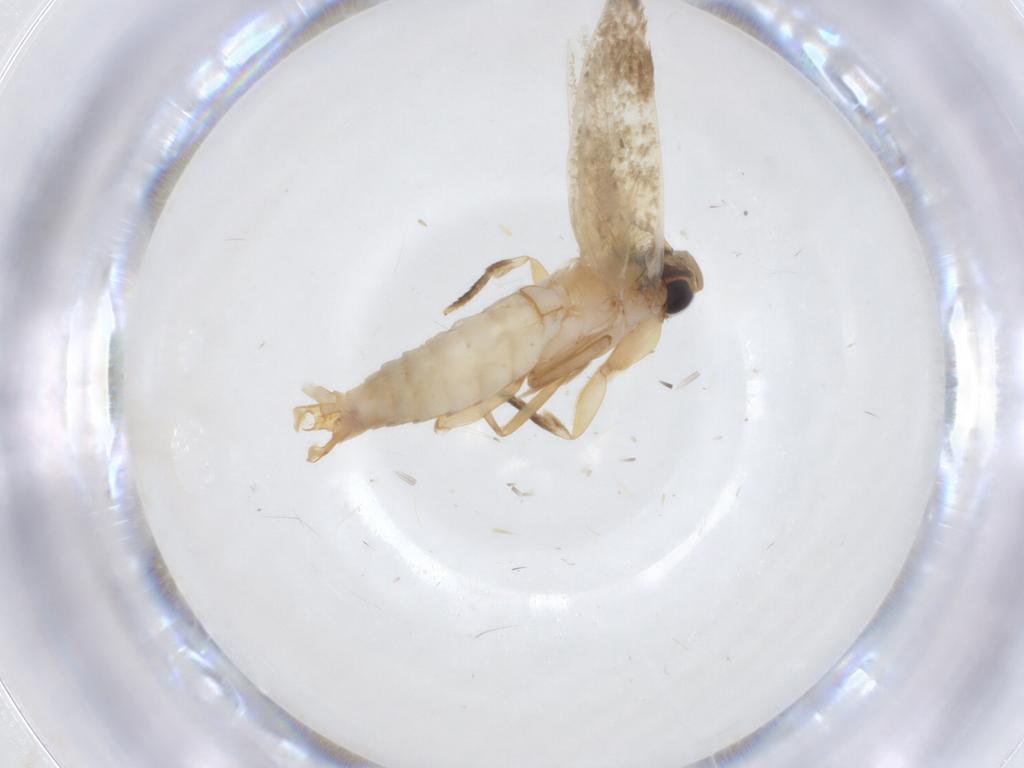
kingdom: Animalia
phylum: Arthropoda
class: Insecta
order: Lepidoptera
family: Tineidae
